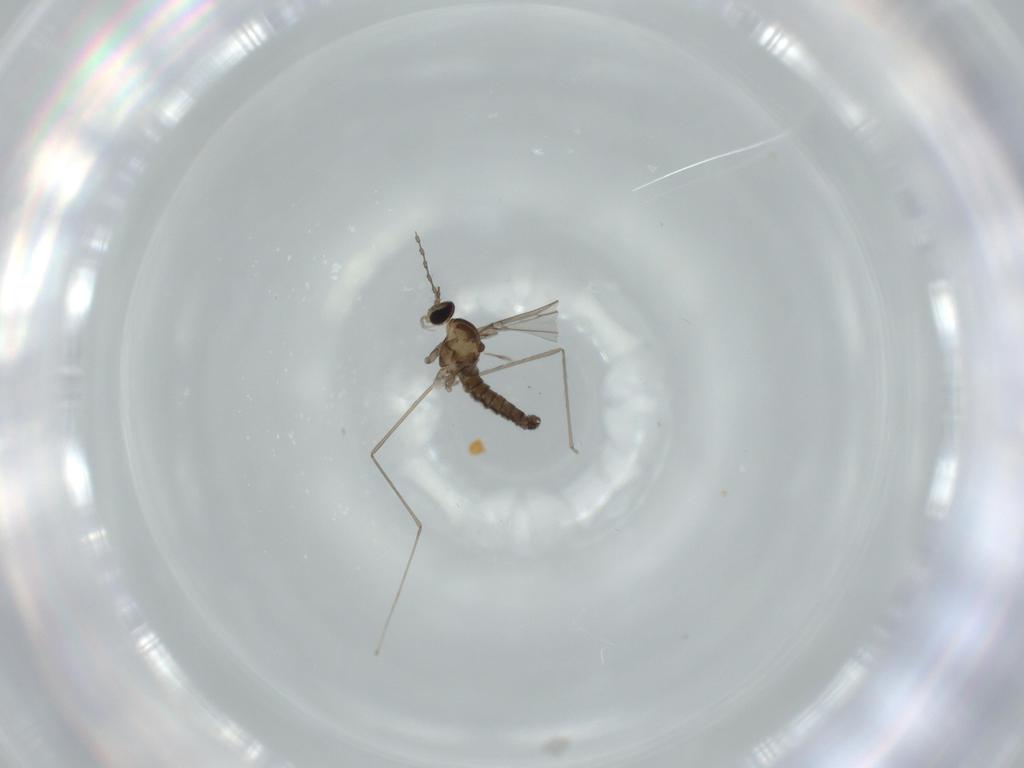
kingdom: Animalia
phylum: Arthropoda
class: Insecta
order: Diptera
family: Cecidomyiidae
